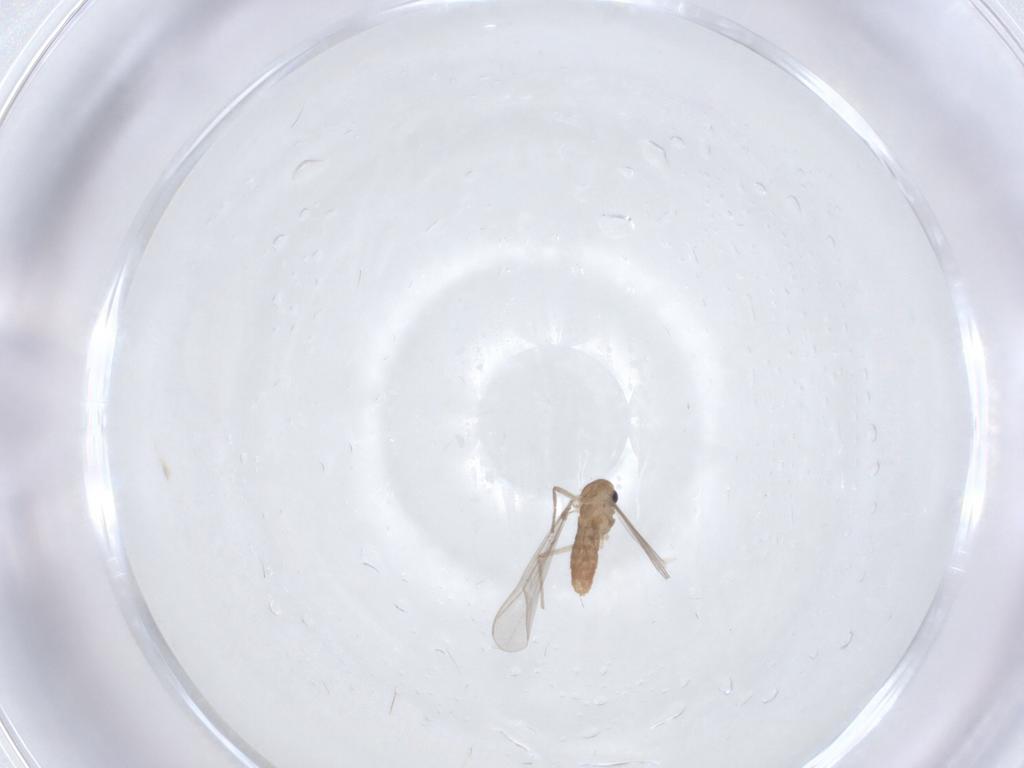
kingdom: Animalia
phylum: Arthropoda
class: Insecta
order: Diptera
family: Limoniidae
